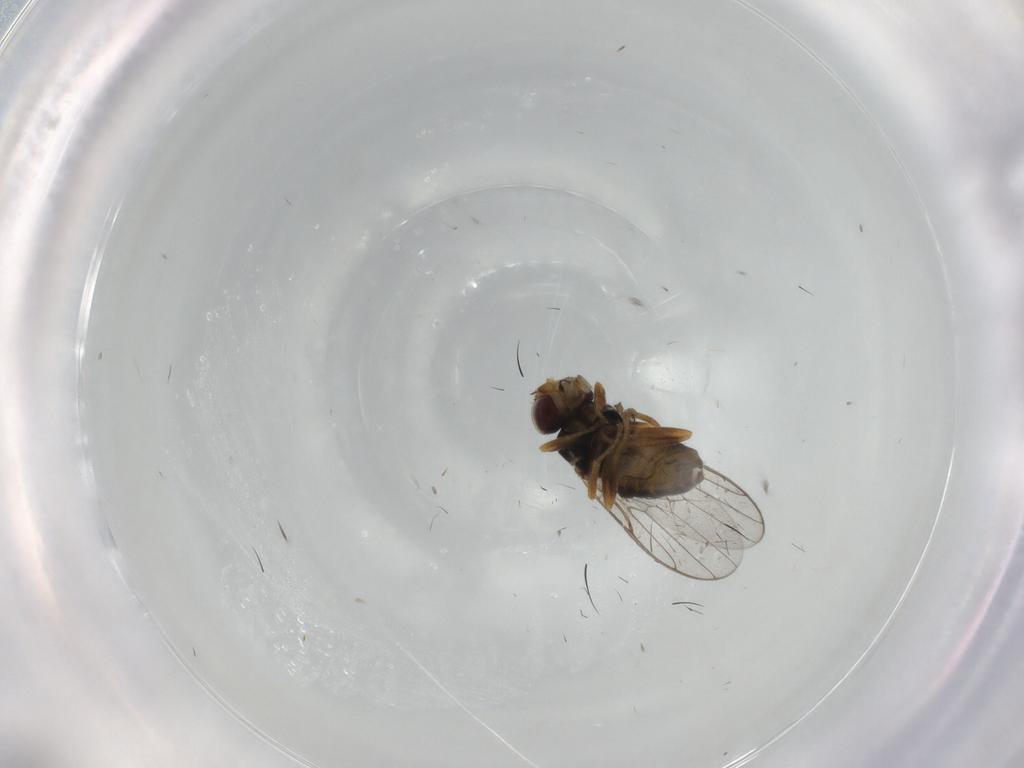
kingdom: Animalia
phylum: Arthropoda
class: Insecta
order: Diptera
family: Chloropidae
